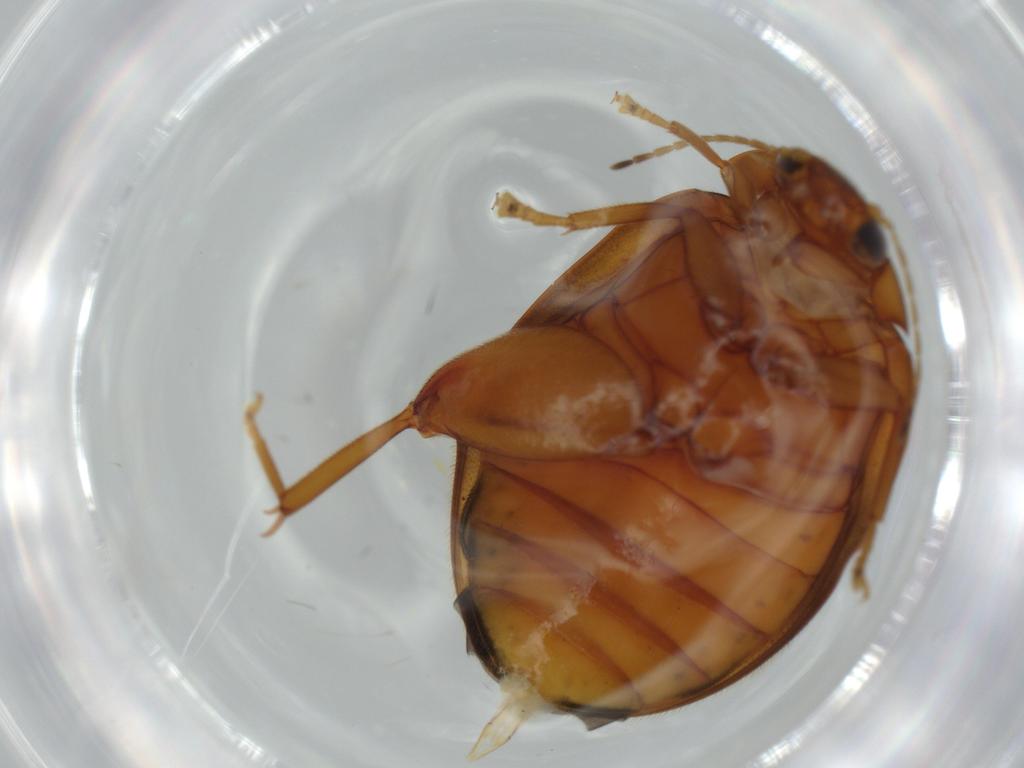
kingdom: Animalia
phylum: Arthropoda
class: Insecta
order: Coleoptera
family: Scirtidae
